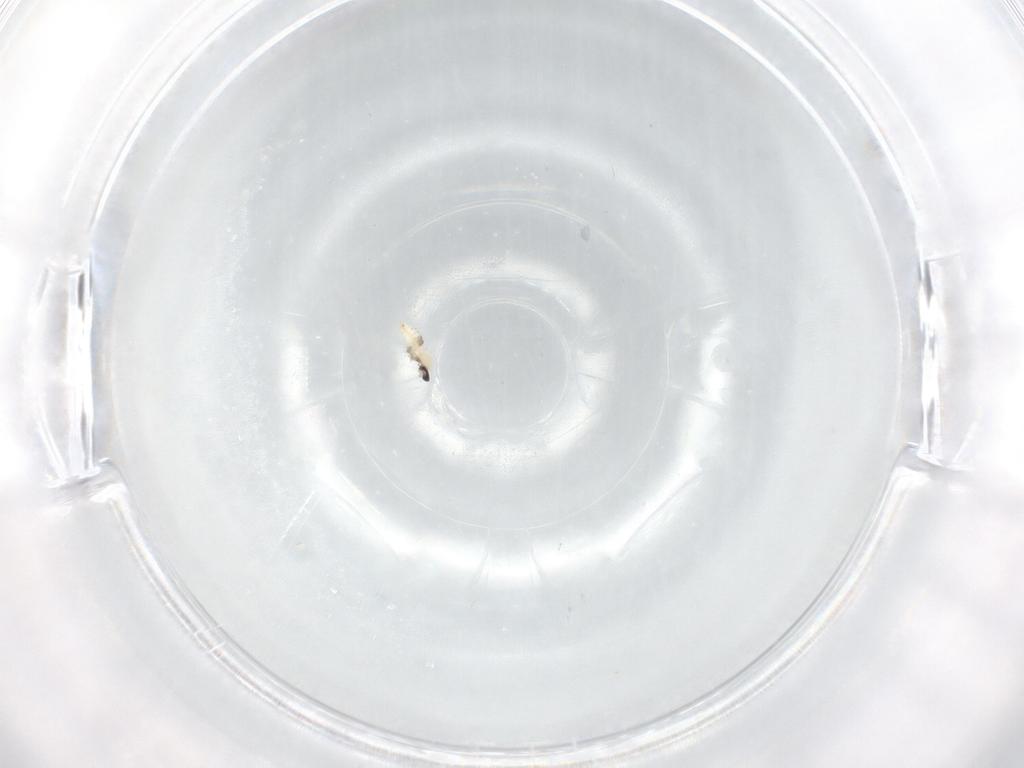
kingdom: Animalia
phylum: Arthropoda
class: Insecta
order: Diptera
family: Cecidomyiidae
